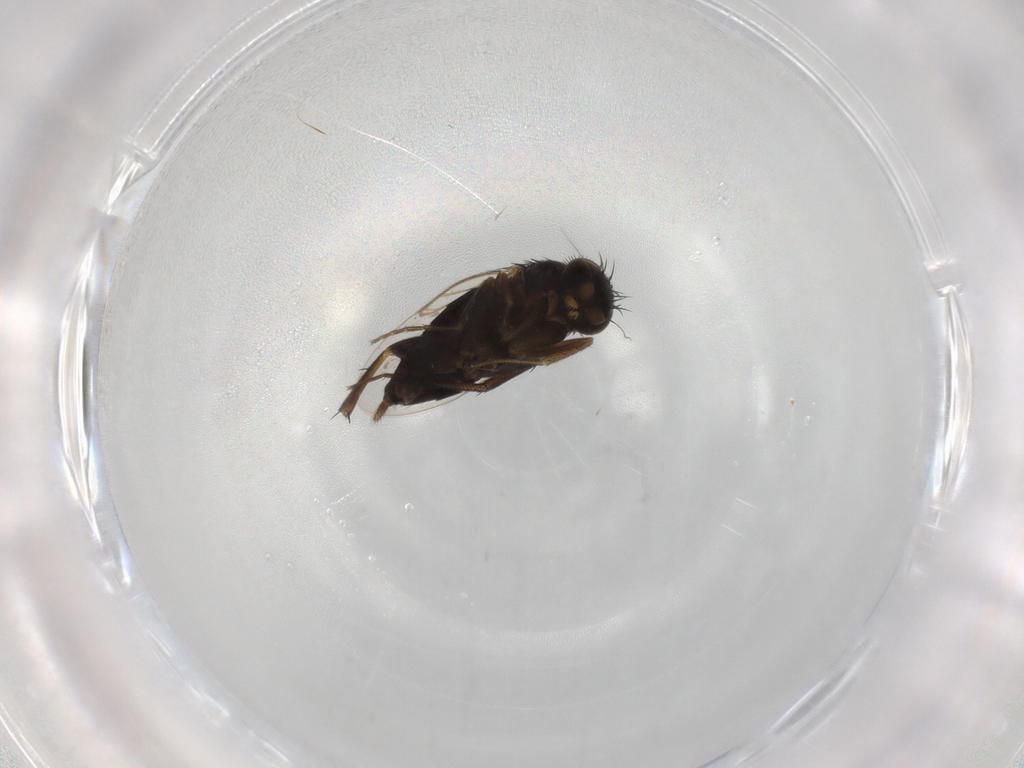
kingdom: Animalia
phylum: Arthropoda
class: Insecta
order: Diptera
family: Phoridae
